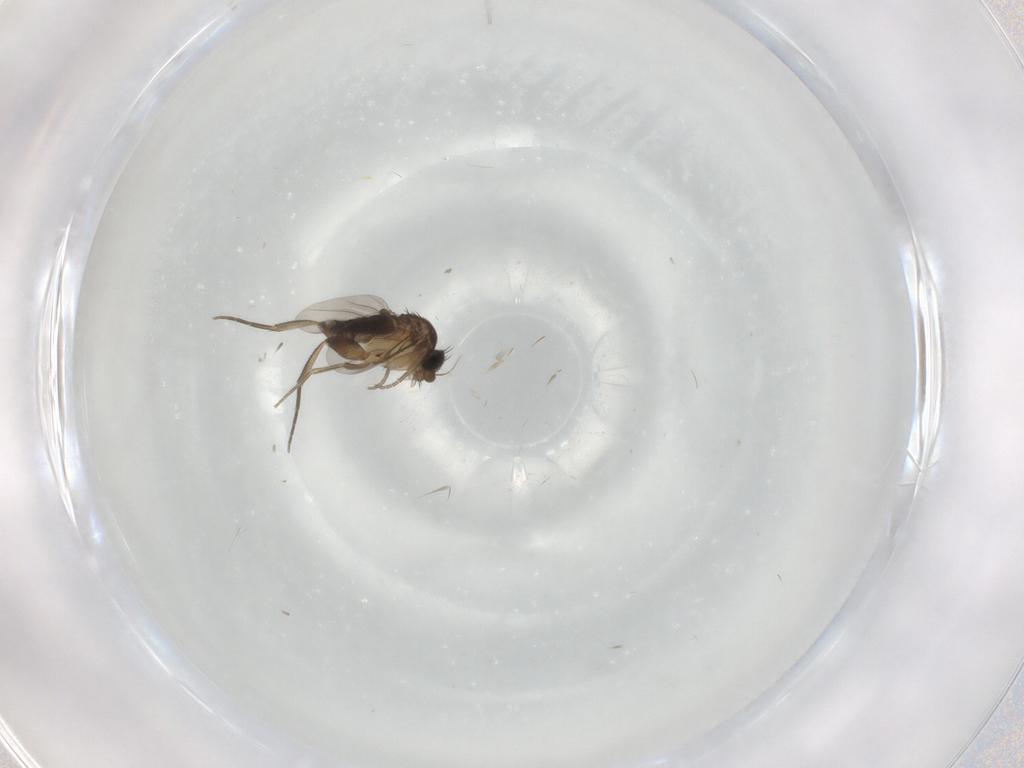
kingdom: Animalia
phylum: Arthropoda
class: Insecta
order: Diptera
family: Phoridae
